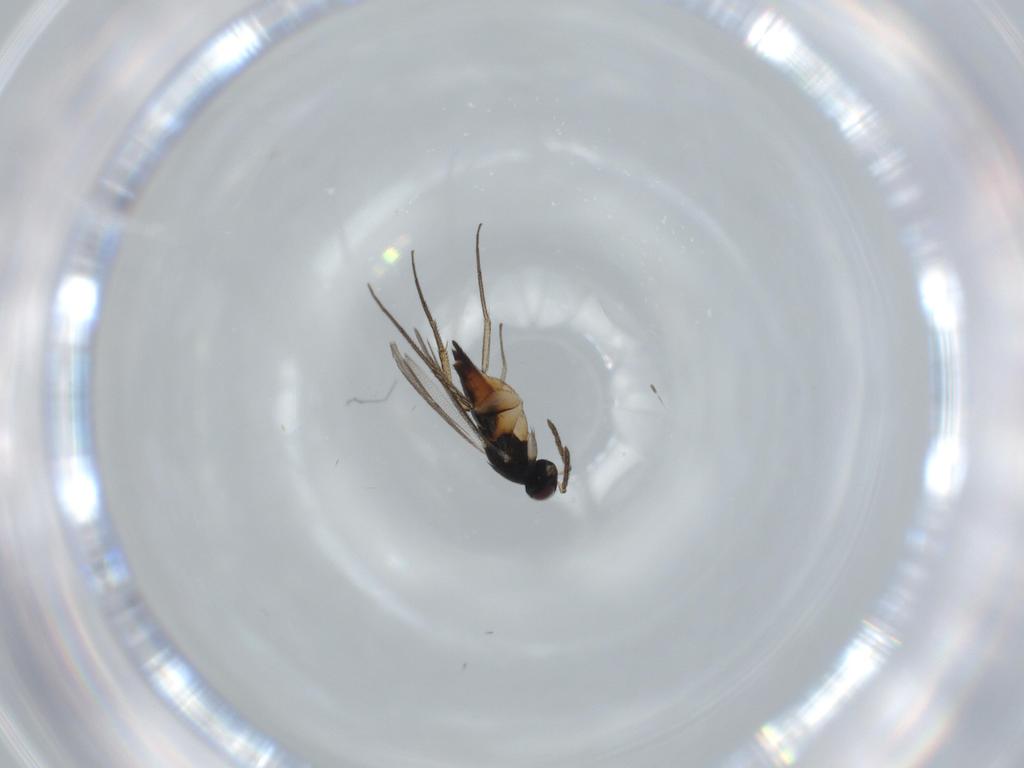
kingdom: Animalia
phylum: Arthropoda
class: Insecta
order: Hymenoptera
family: Eulophidae
